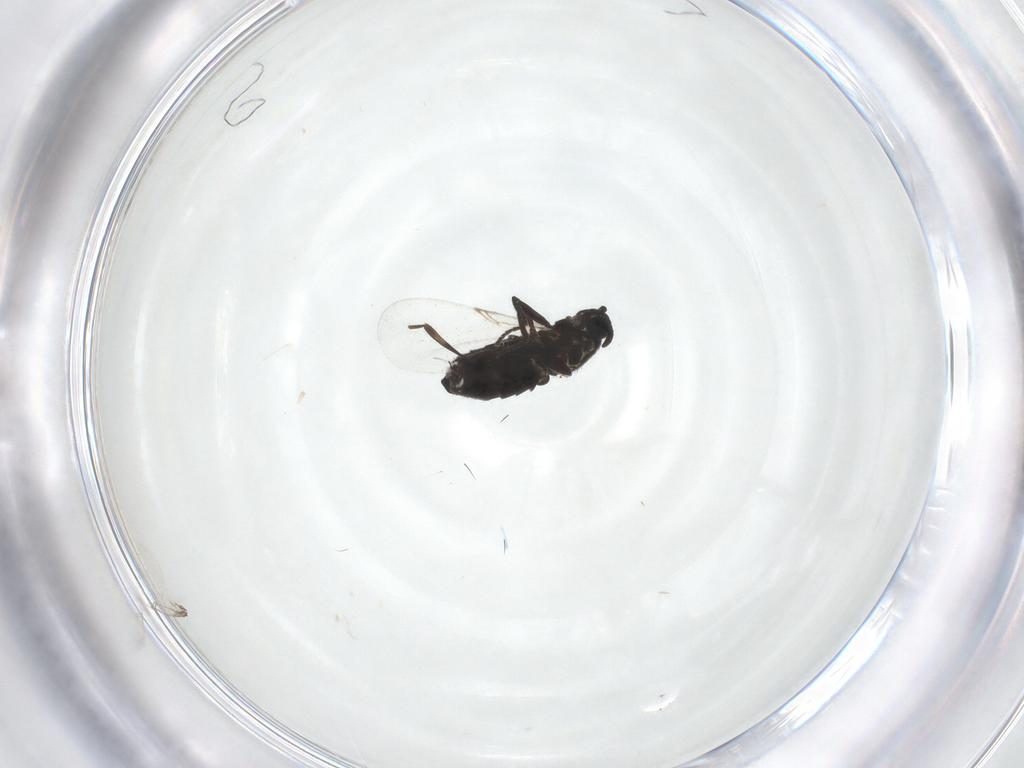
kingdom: Animalia
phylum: Arthropoda
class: Insecta
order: Diptera
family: Scatopsidae
